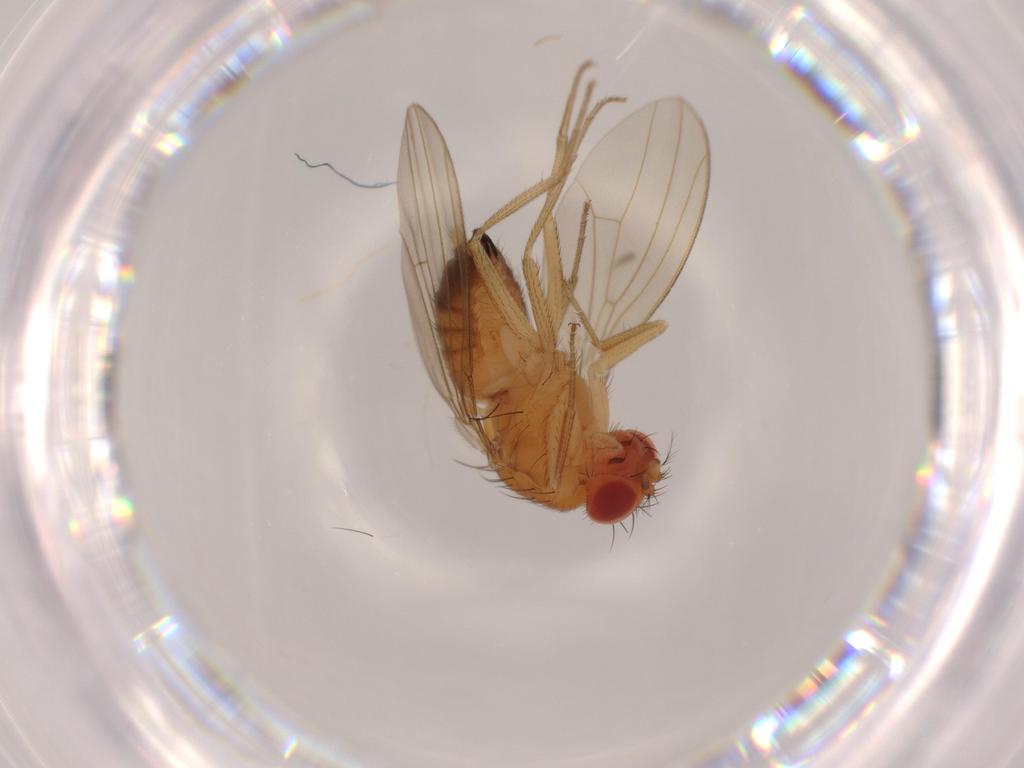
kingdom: Animalia
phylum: Arthropoda
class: Insecta
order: Diptera
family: Drosophilidae
